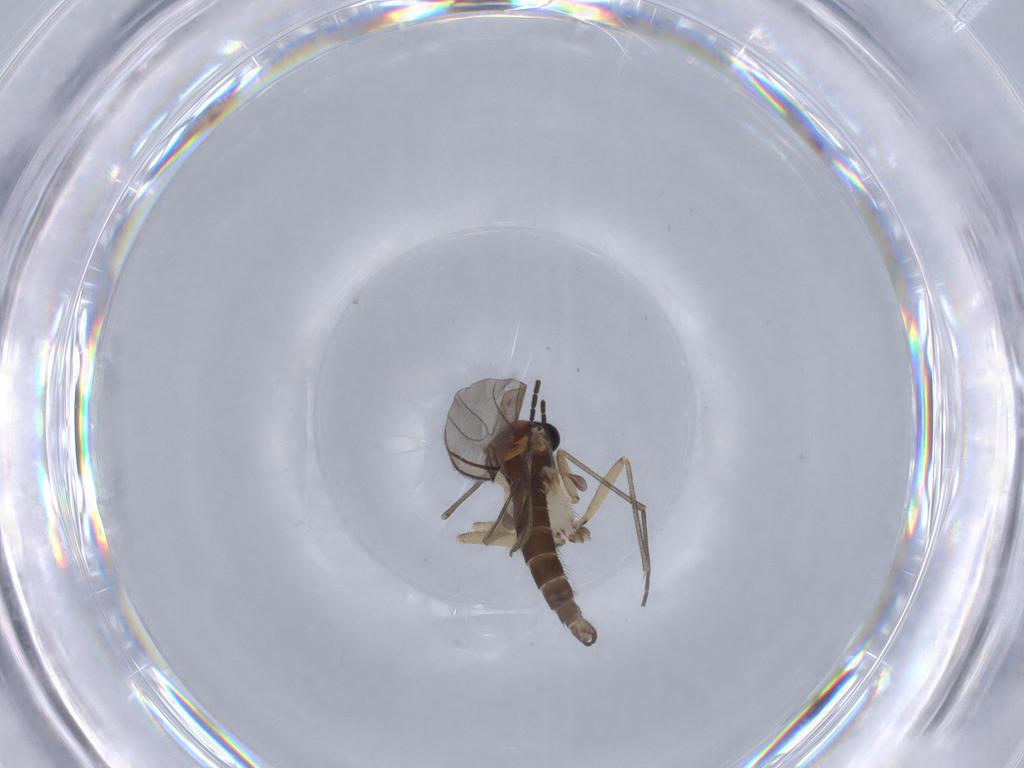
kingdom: Animalia
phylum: Arthropoda
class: Insecta
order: Diptera
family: Sciaridae
